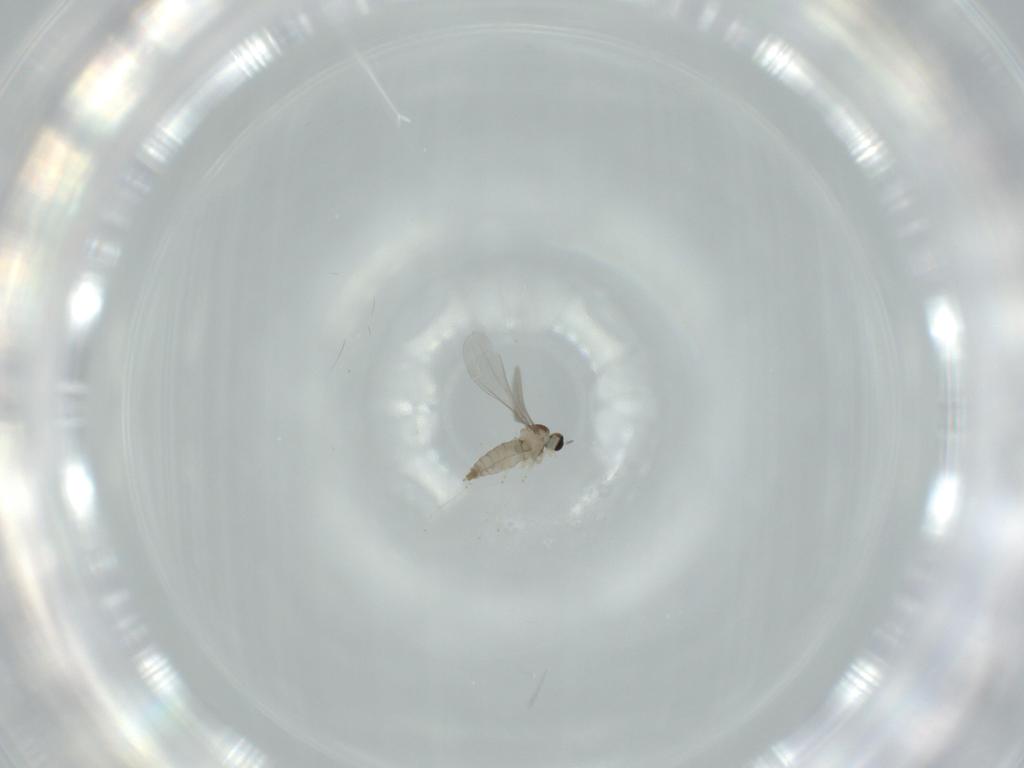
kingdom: Animalia
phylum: Arthropoda
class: Insecta
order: Diptera
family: Cecidomyiidae
